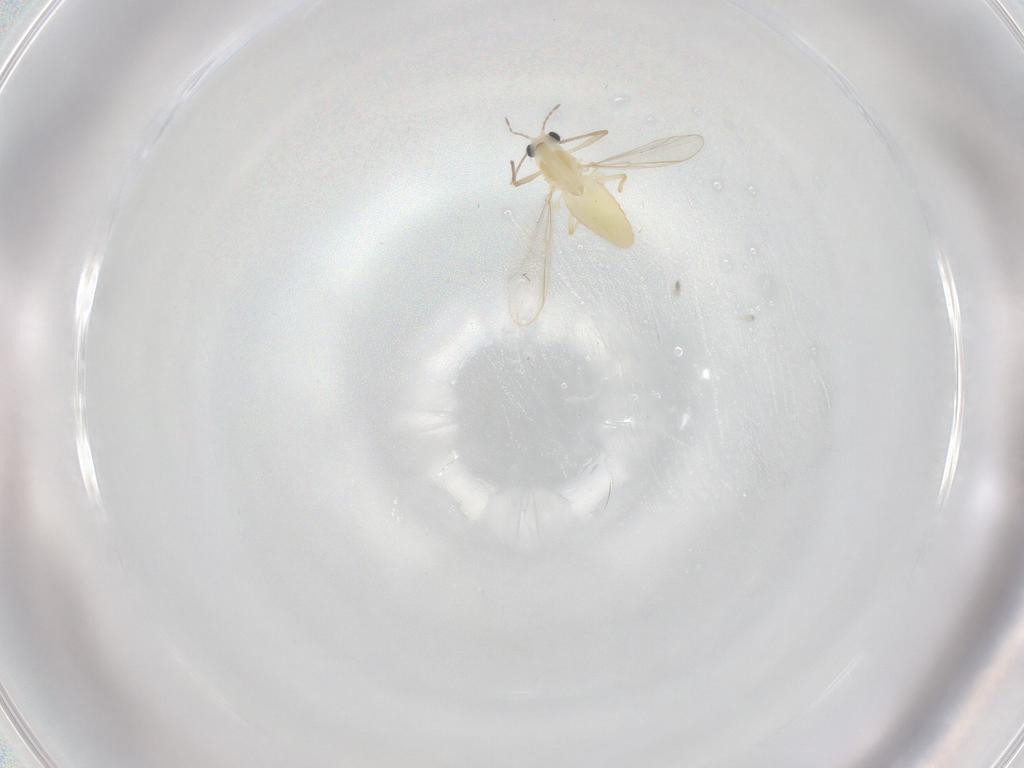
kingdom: Animalia
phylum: Arthropoda
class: Insecta
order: Diptera
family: Chironomidae
